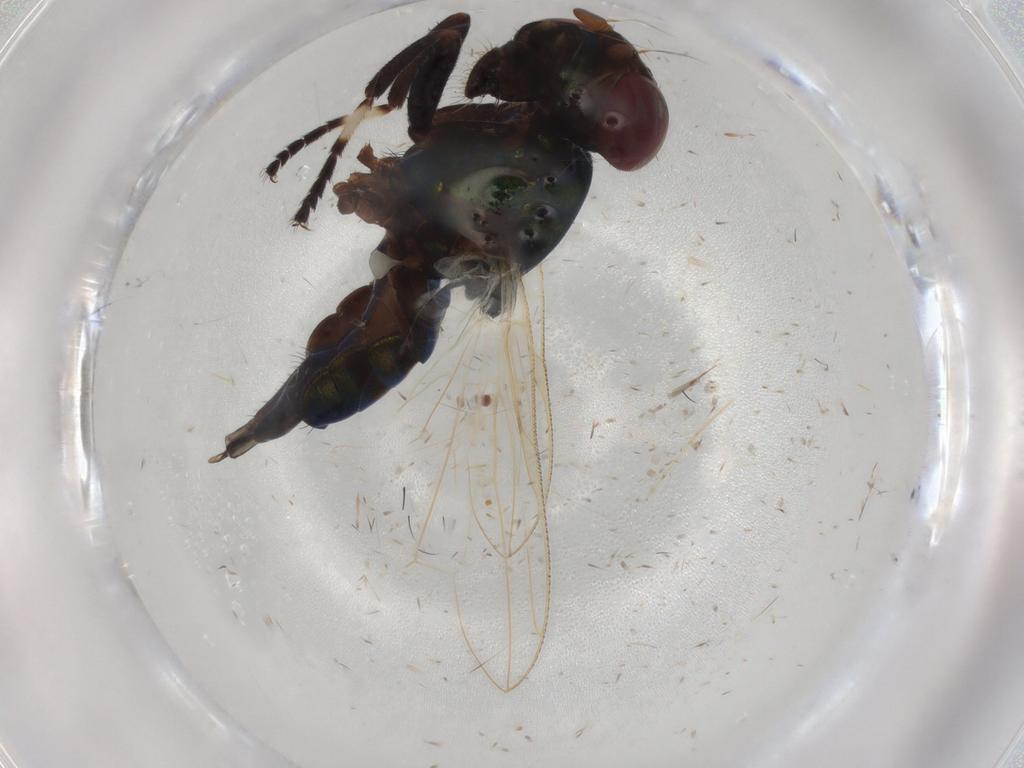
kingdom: Animalia
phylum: Arthropoda
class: Insecta
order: Diptera
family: Ulidiidae
